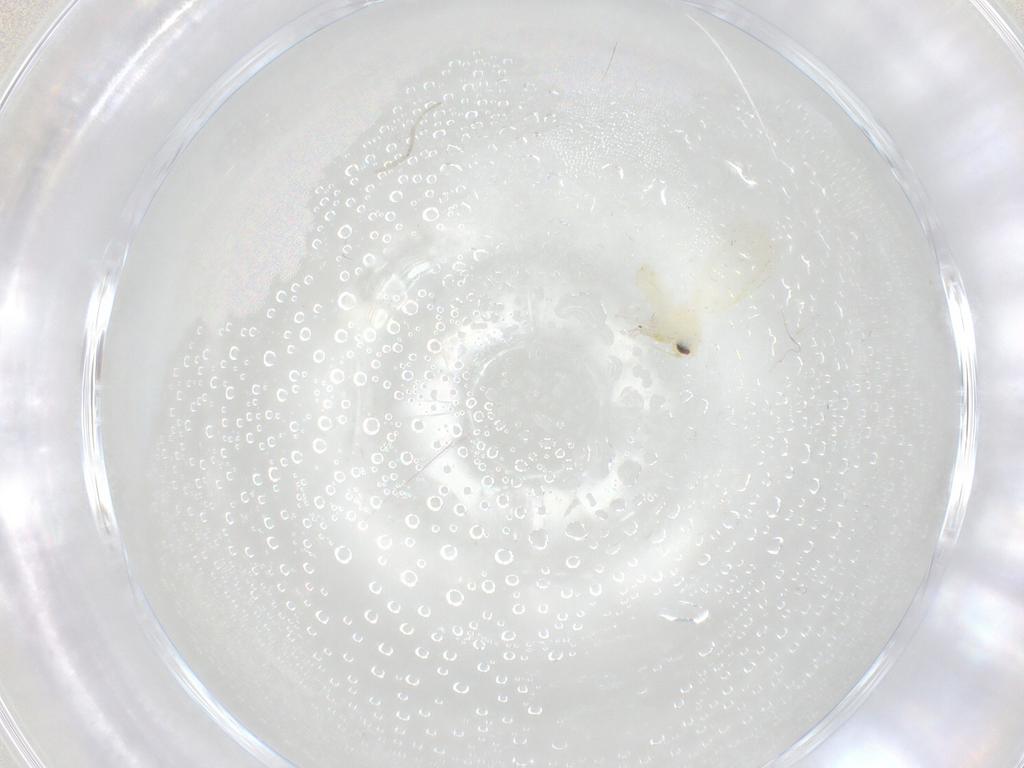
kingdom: Animalia
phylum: Arthropoda
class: Insecta
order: Diptera
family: Cecidomyiidae
